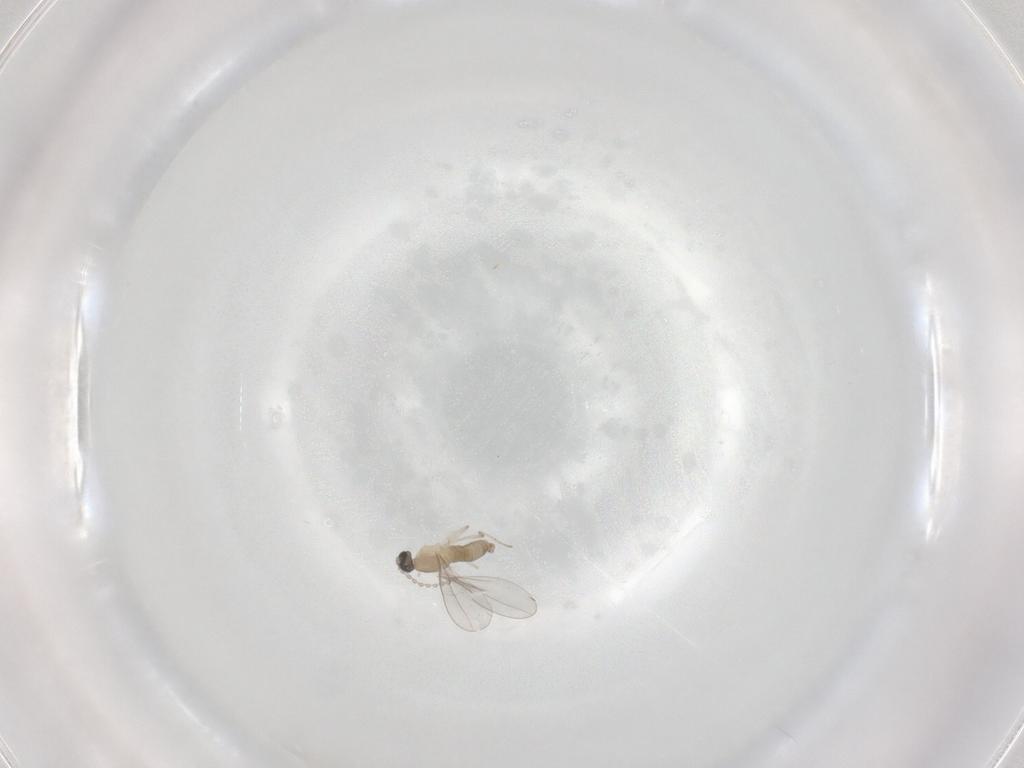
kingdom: Animalia
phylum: Arthropoda
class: Insecta
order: Diptera
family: Cecidomyiidae
